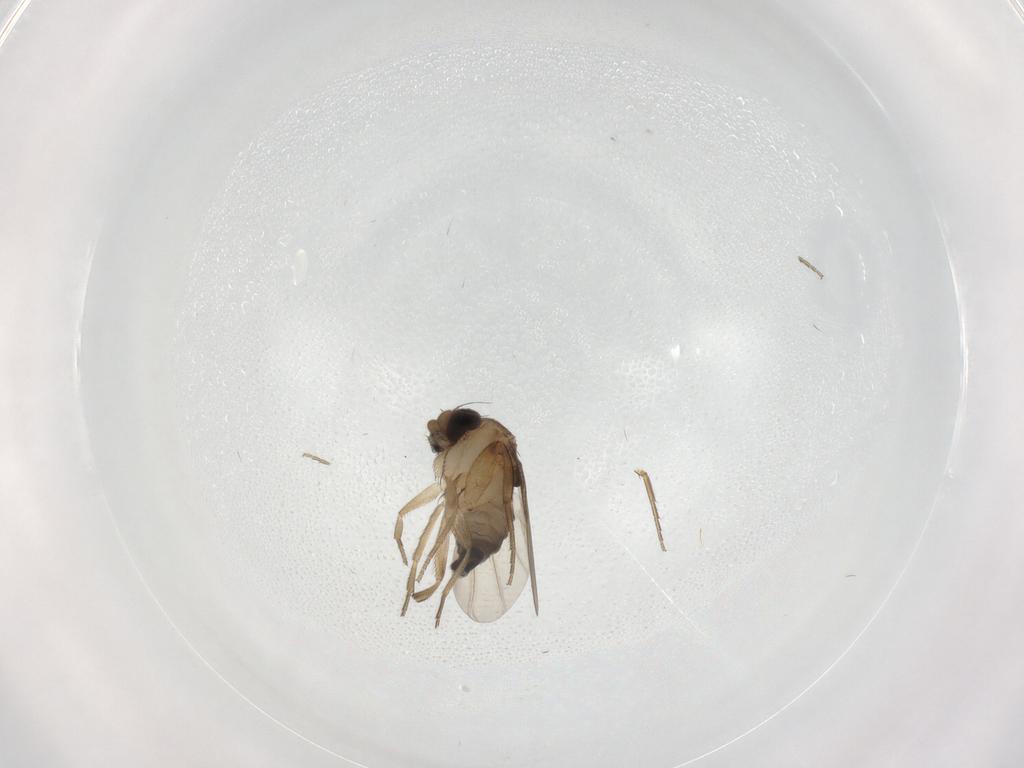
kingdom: Animalia
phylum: Arthropoda
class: Insecta
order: Diptera
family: Phoridae
